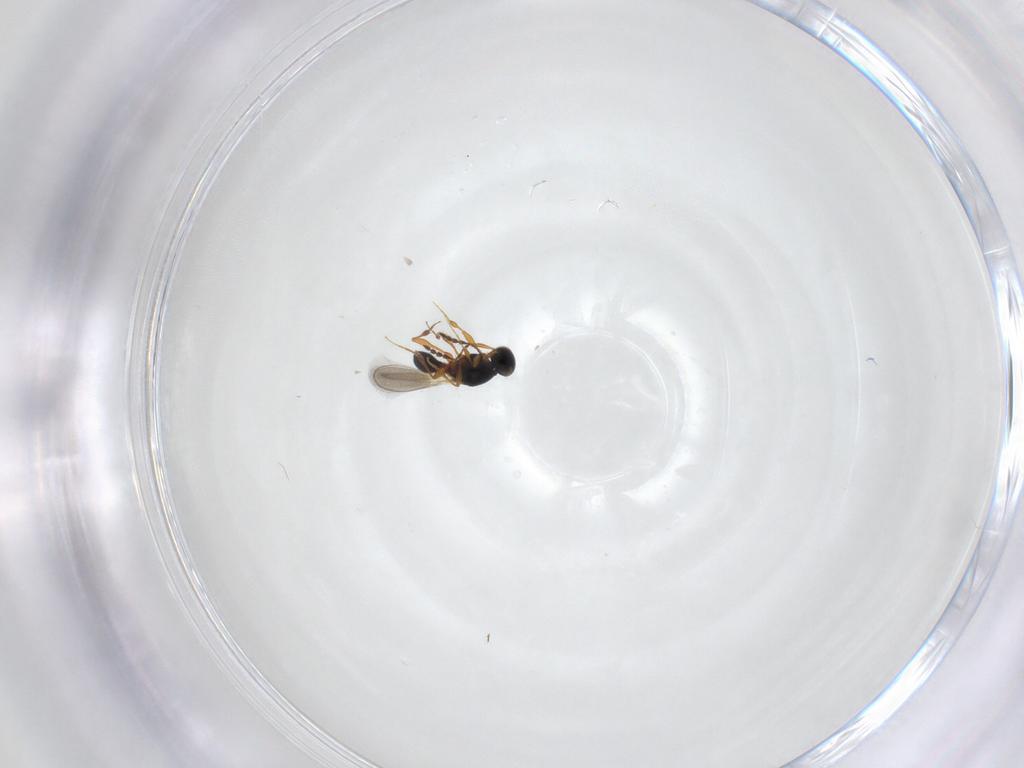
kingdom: Animalia
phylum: Arthropoda
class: Insecta
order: Hymenoptera
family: Platygastridae
